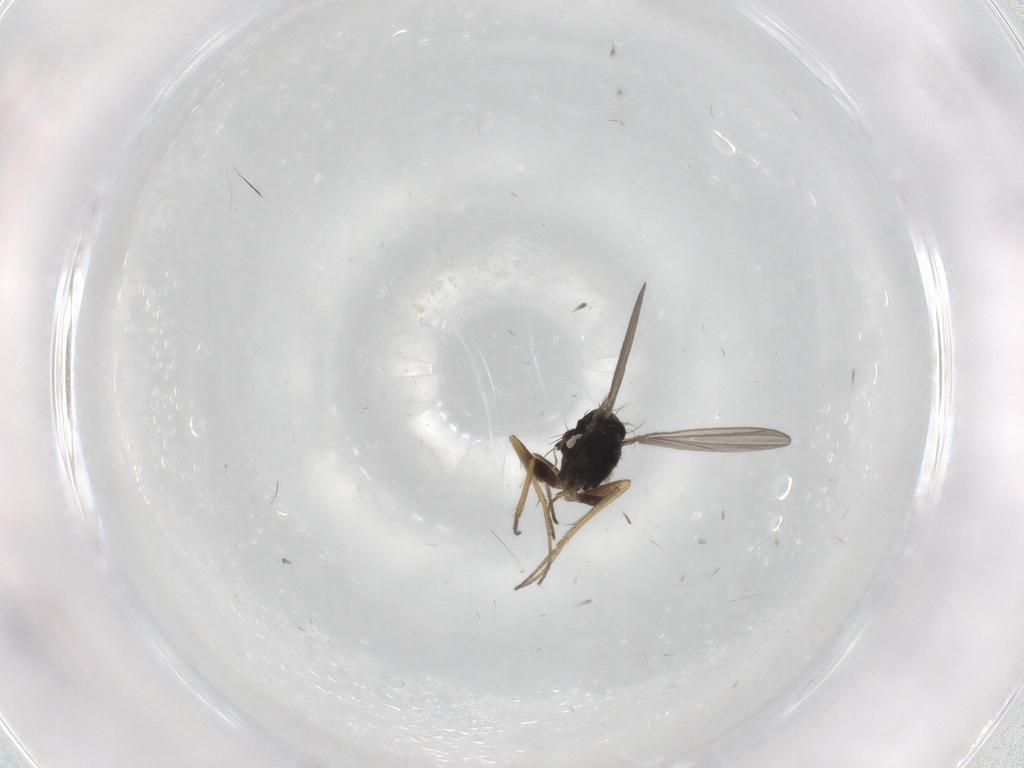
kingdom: Animalia
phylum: Arthropoda
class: Insecta
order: Diptera
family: Dolichopodidae
